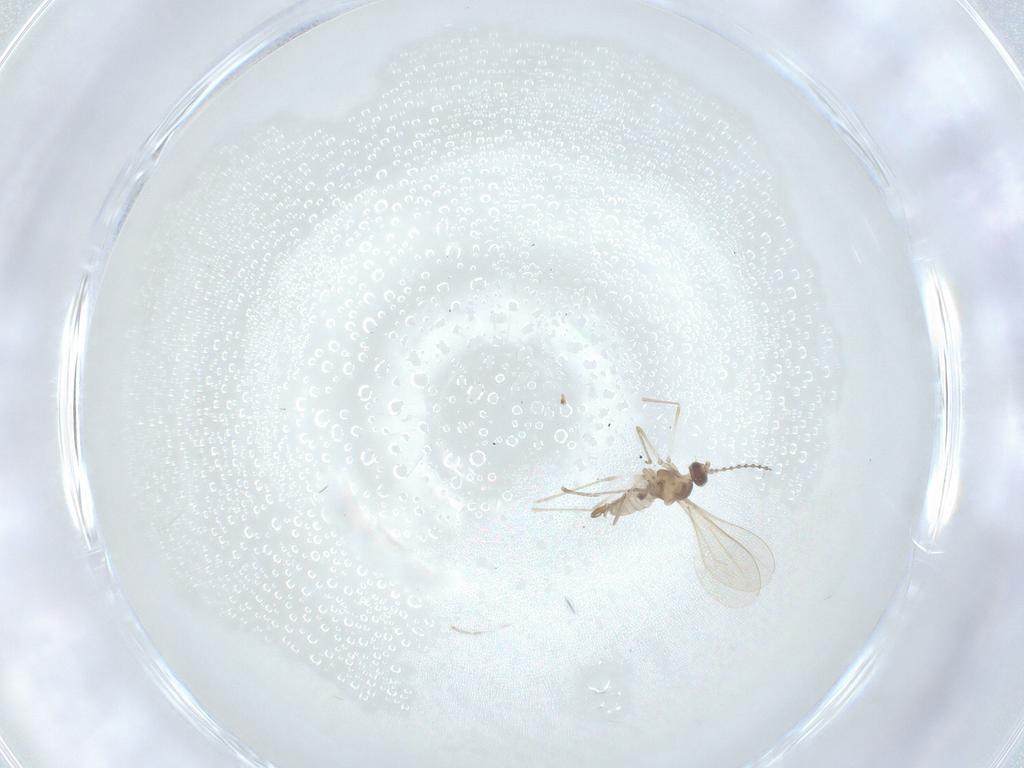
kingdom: Animalia
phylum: Arthropoda
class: Insecta
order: Diptera
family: Cecidomyiidae
